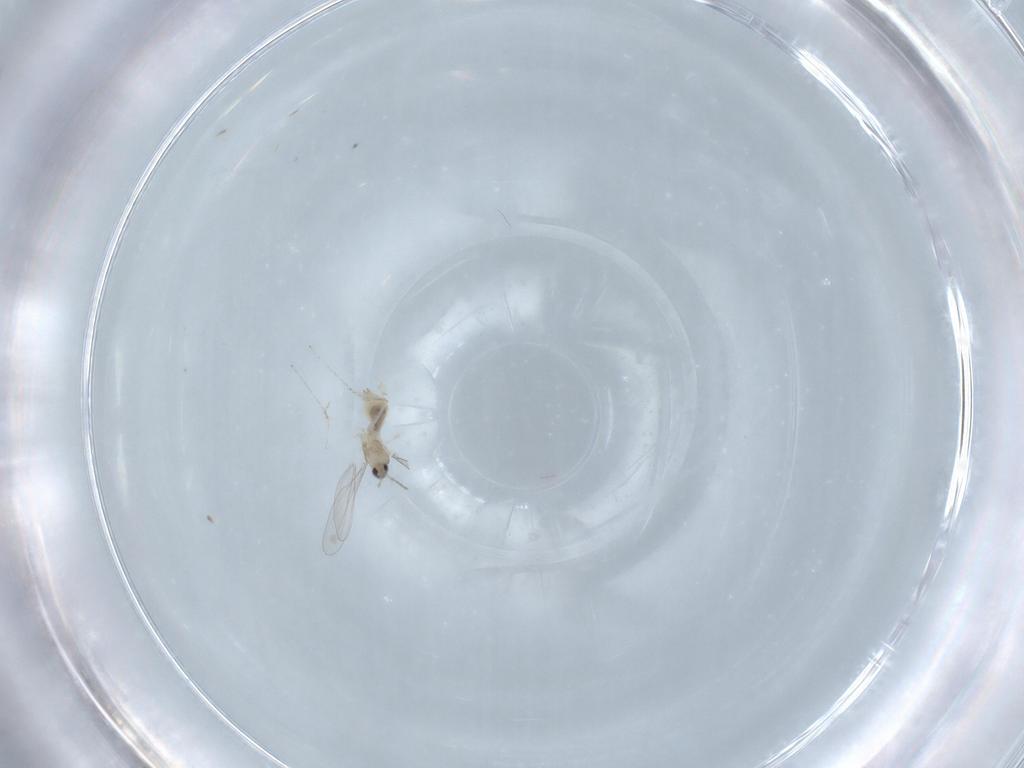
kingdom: Animalia
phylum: Arthropoda
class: Insecta
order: Diptera
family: Cecidomyiidae
